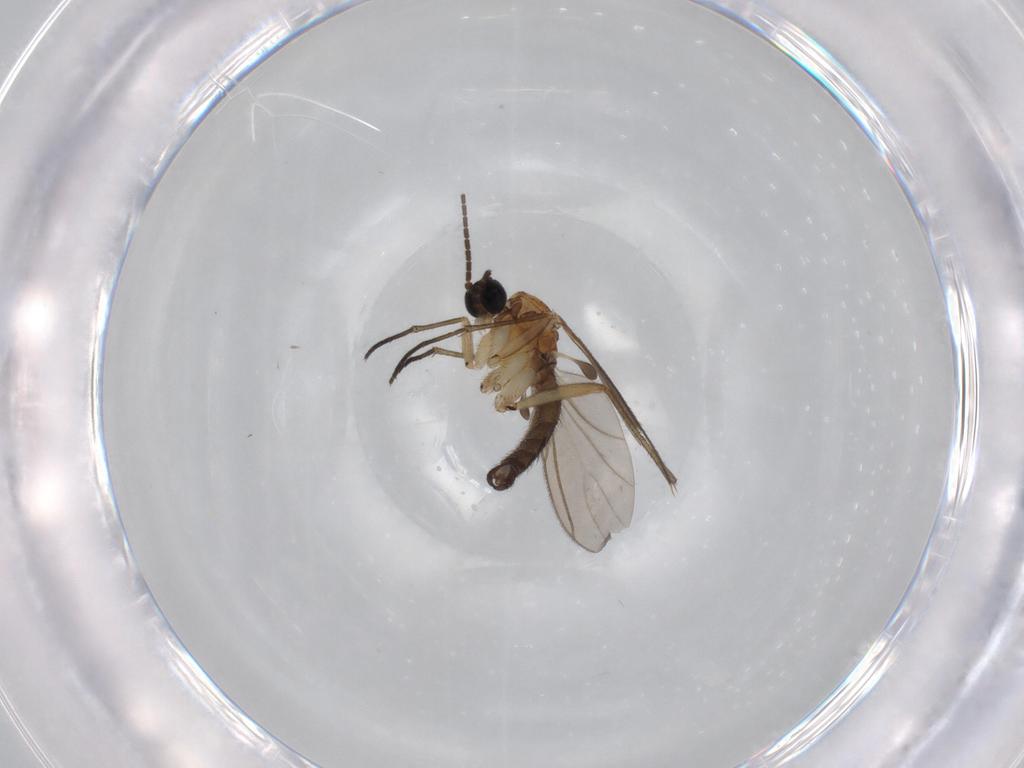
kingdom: Animalia
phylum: Arthropoda
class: Insecta
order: Diptera
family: Sciaridae
